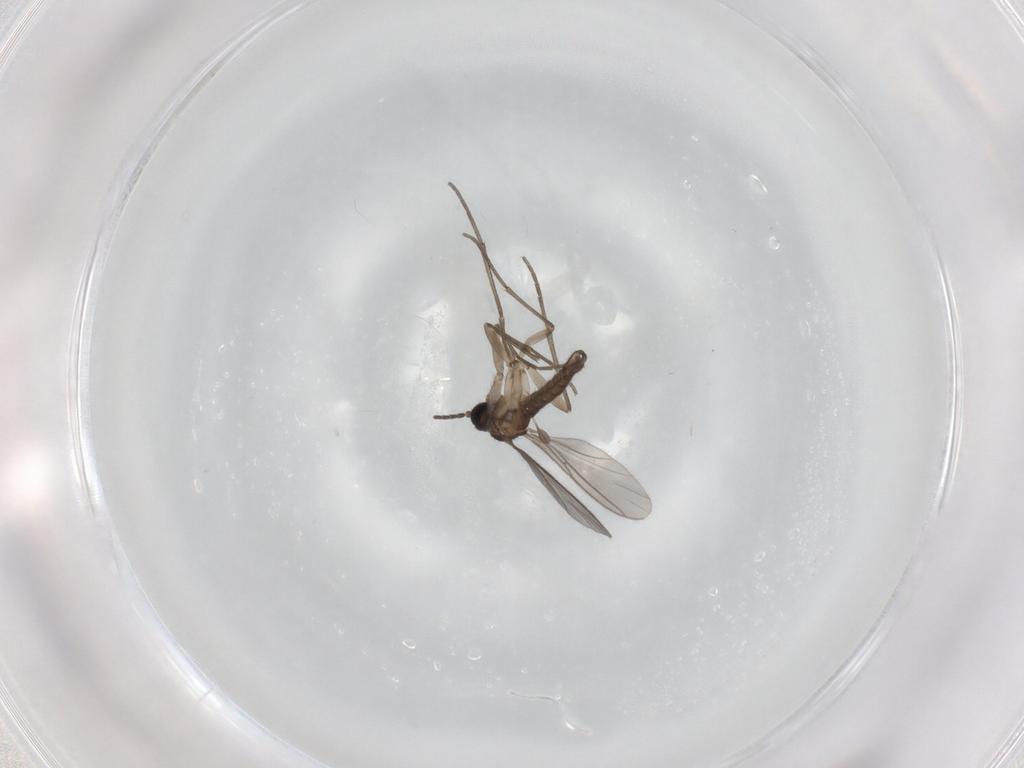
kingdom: Animalia
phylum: Arthropoda
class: Insecta
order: Diptera
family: Sciaridae
